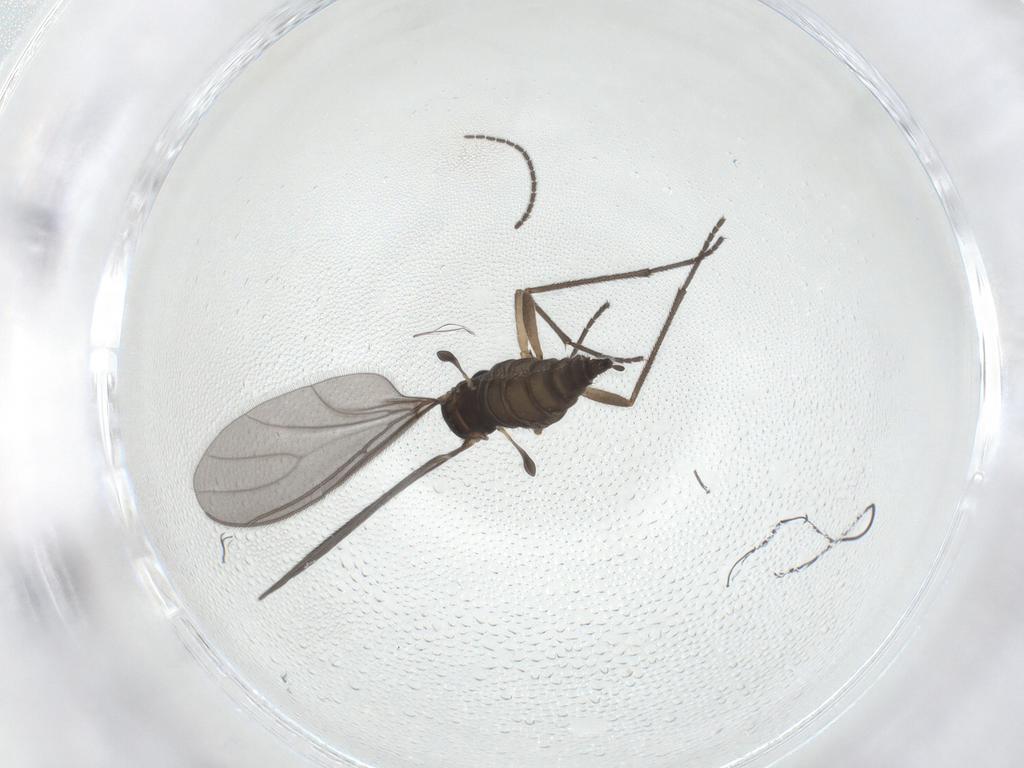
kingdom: Animalia
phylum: Arthropoda
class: Insecta
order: Diptera
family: Sciaridae
